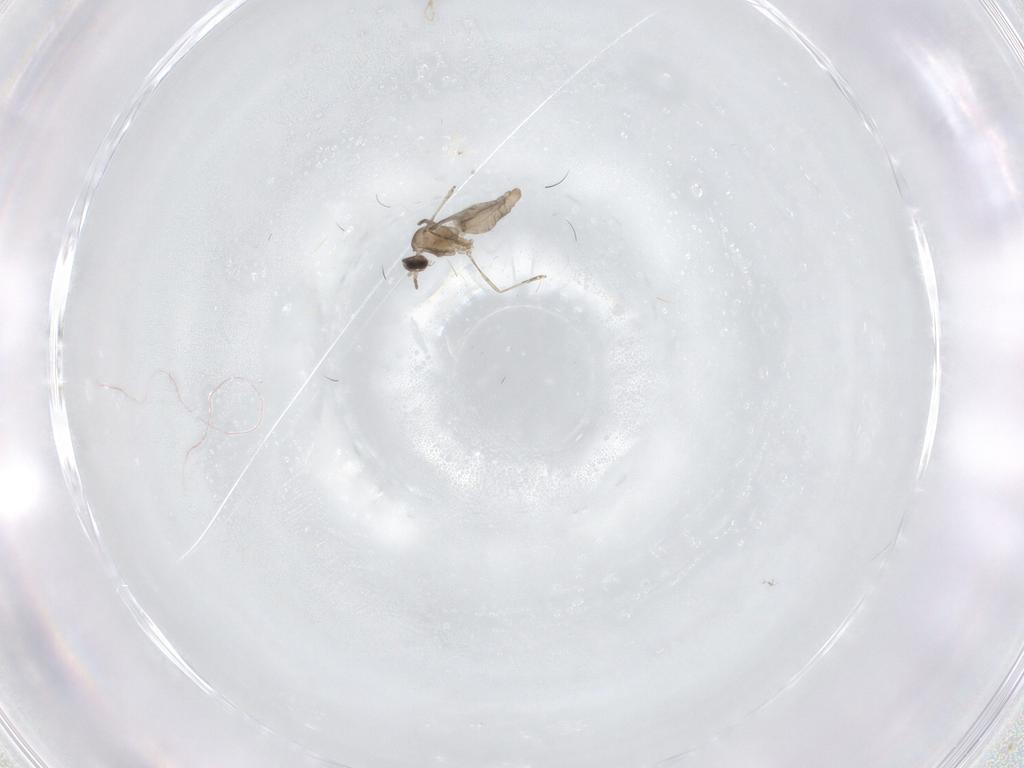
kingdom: Animalia
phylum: Arthropoda
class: Insecta
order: Diptera
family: Cecidomyiidae
